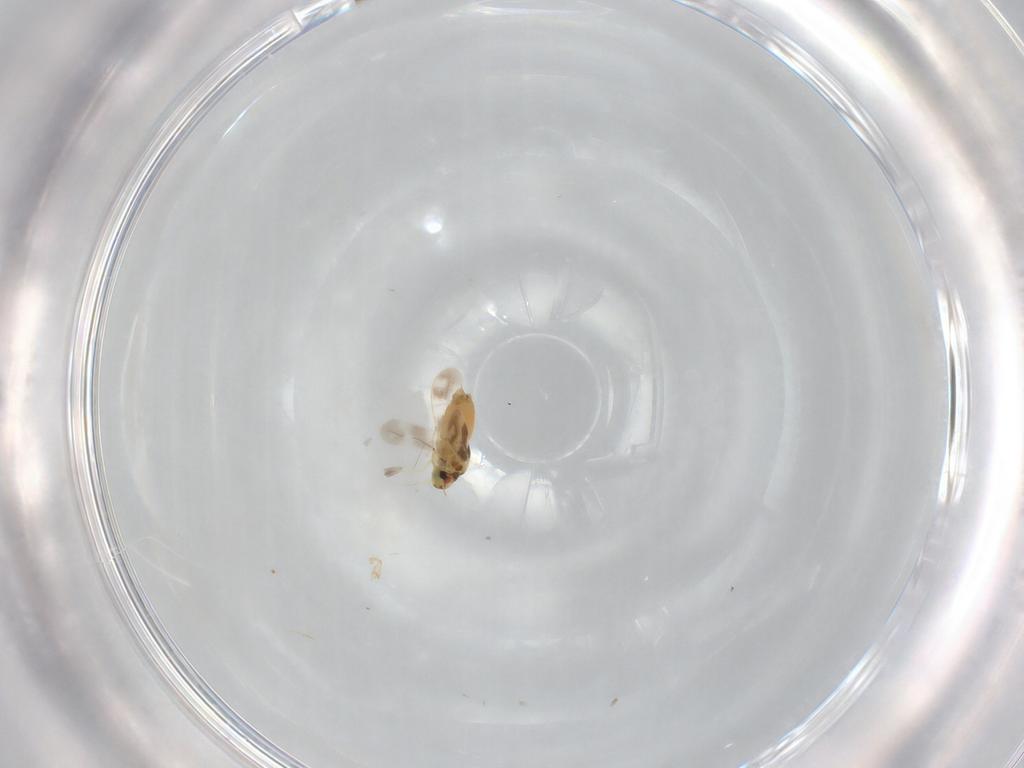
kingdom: Animalia
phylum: Arthropoda
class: Insecta
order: Hemiptera
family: Aleyrodidae
